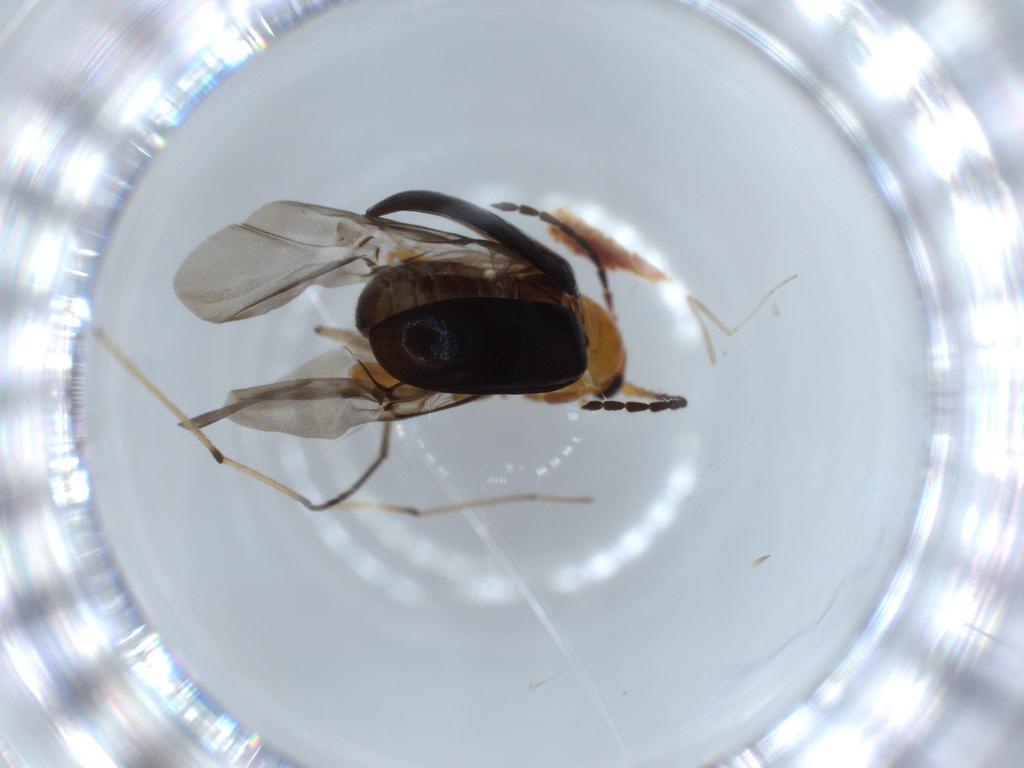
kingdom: Animalia
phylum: Arthropoda
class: Insecta
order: Coleoptera
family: Chrysomelidae
